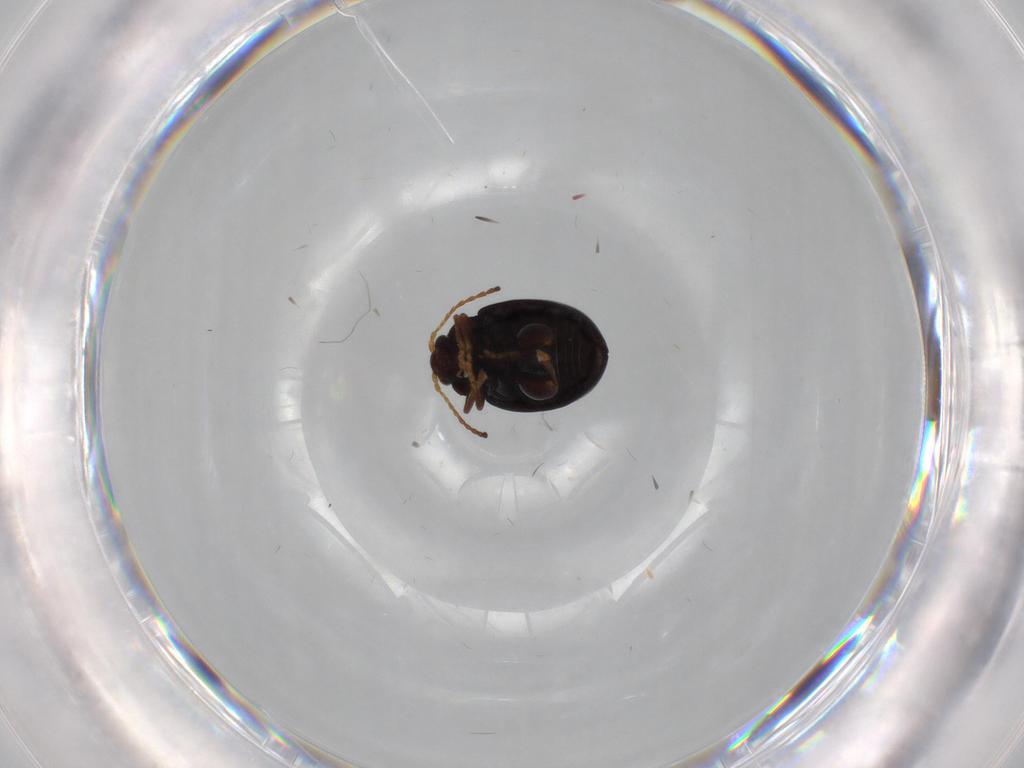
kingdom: Animalia
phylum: Arthropoda
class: Insecta
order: Coleoptera
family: Chrysomelidae
